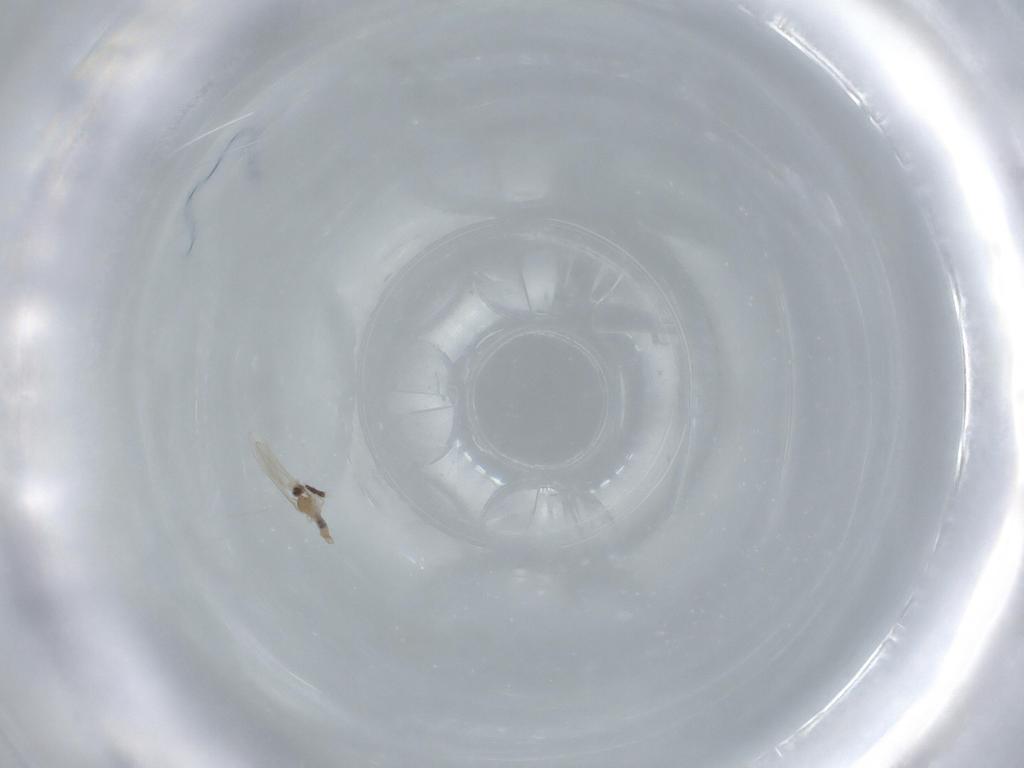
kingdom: Animalia
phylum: Arthropoda
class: Insecta
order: Diptera
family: Sciaridae
